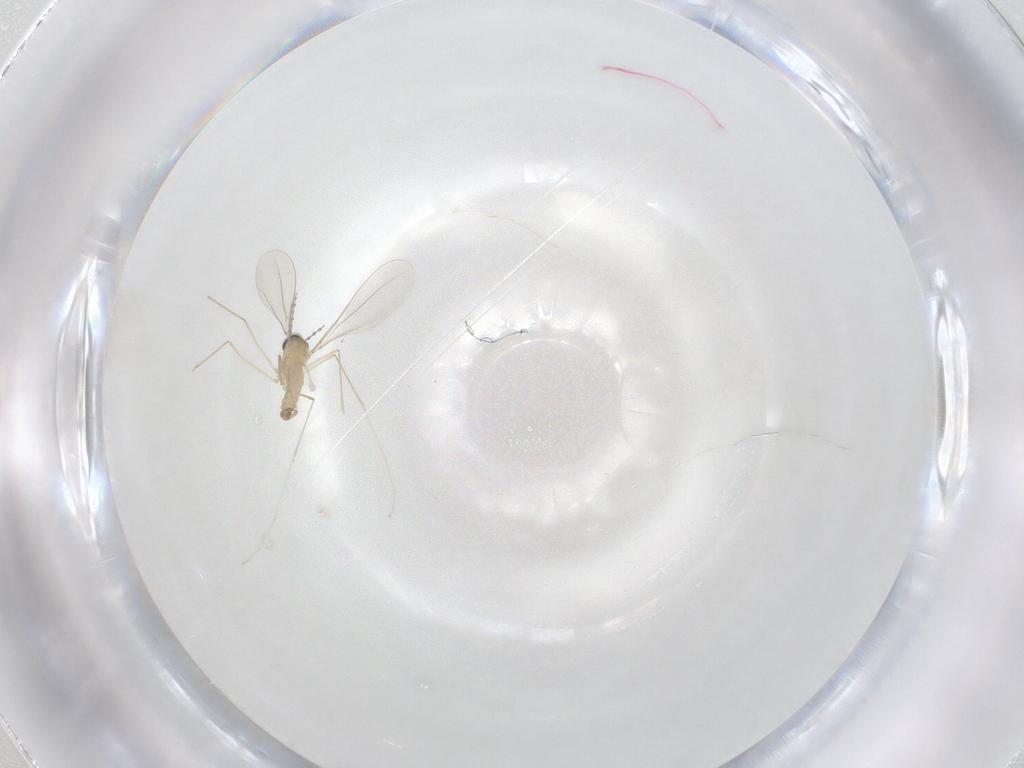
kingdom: Animalia
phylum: Arthropoda
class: Insecta
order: Diptera
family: Cecidomyiidae
